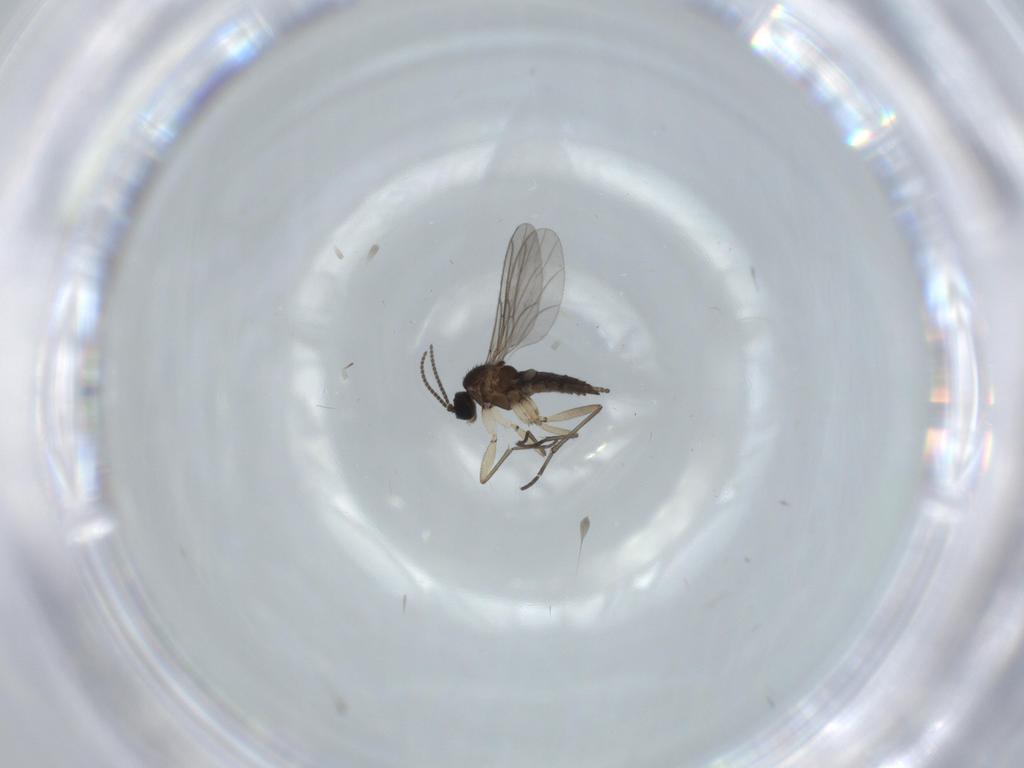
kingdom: Animalia
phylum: Arthropoda
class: Insecta
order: Diptera
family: Sciaridae
